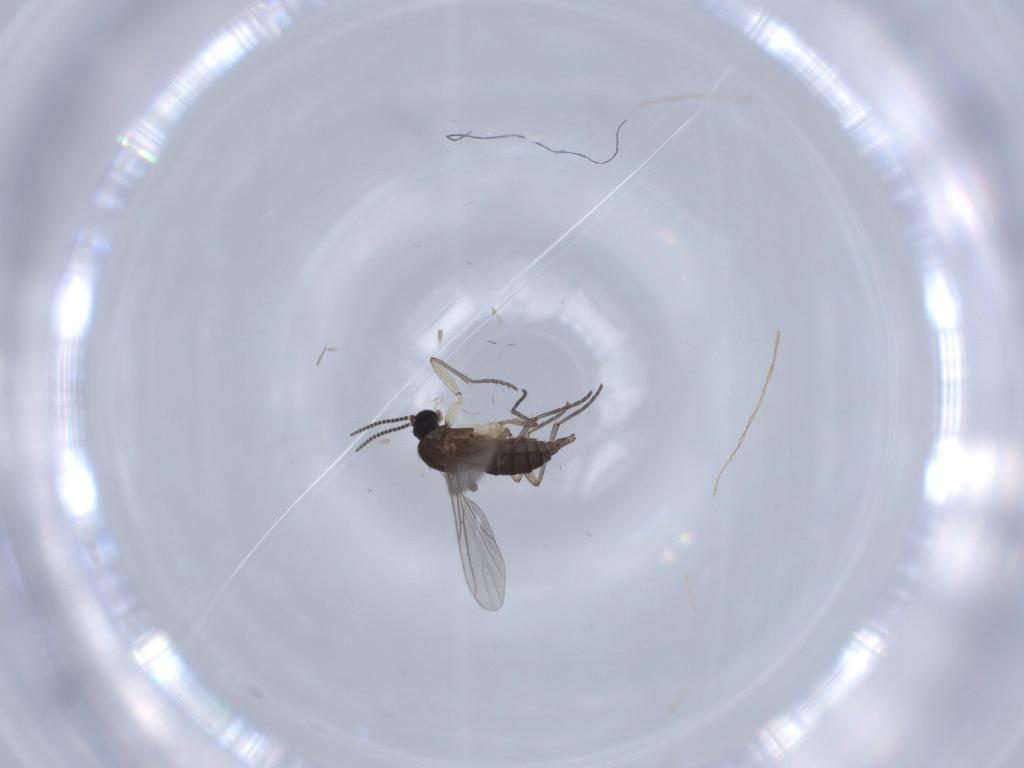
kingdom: Animalia
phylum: Arthropoda
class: Insecta
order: Diptera
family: Sciaridae
